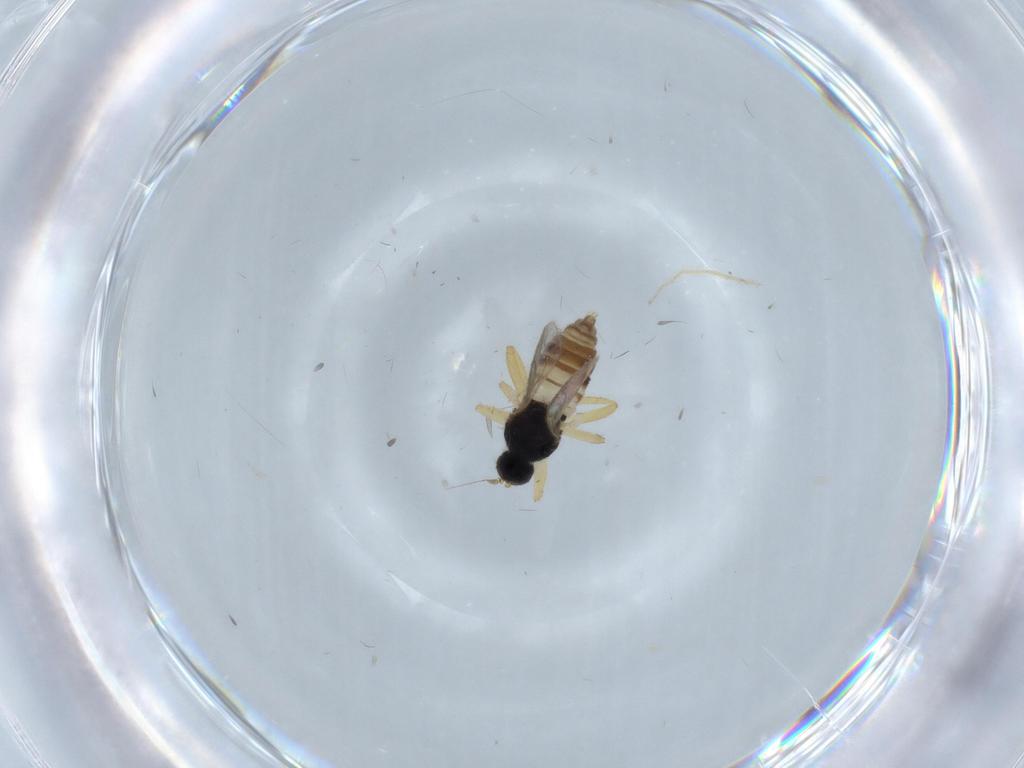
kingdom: Animalia
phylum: Arthropoda
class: Insecta
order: Diptera
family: Hybotidae
